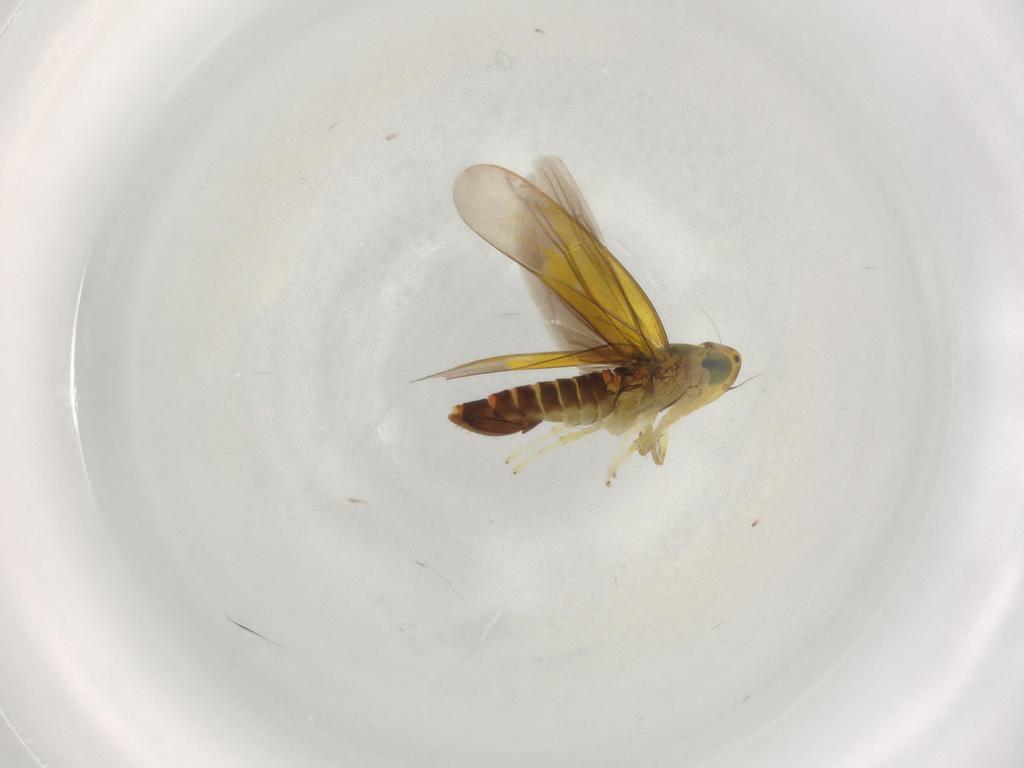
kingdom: Animalia
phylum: Arthropoda
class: Insecta
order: Hemiptera
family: Cicadellidae
